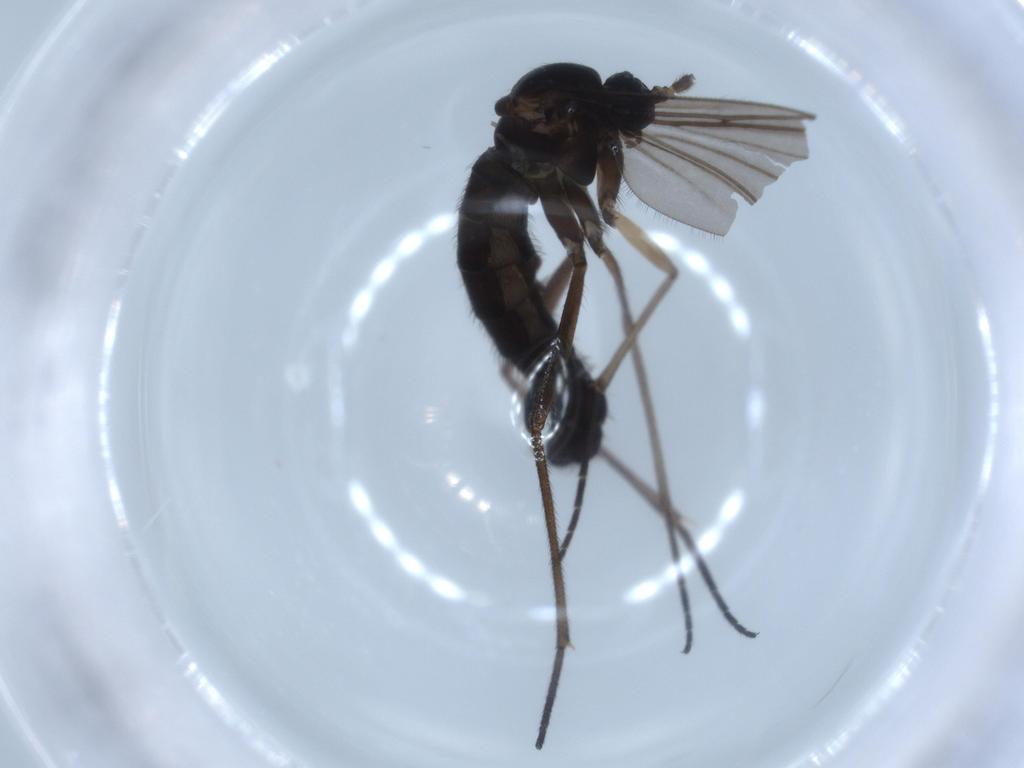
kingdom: Animalia
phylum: Arthropoda
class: Insecta
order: Diptera
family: Sciaridae
